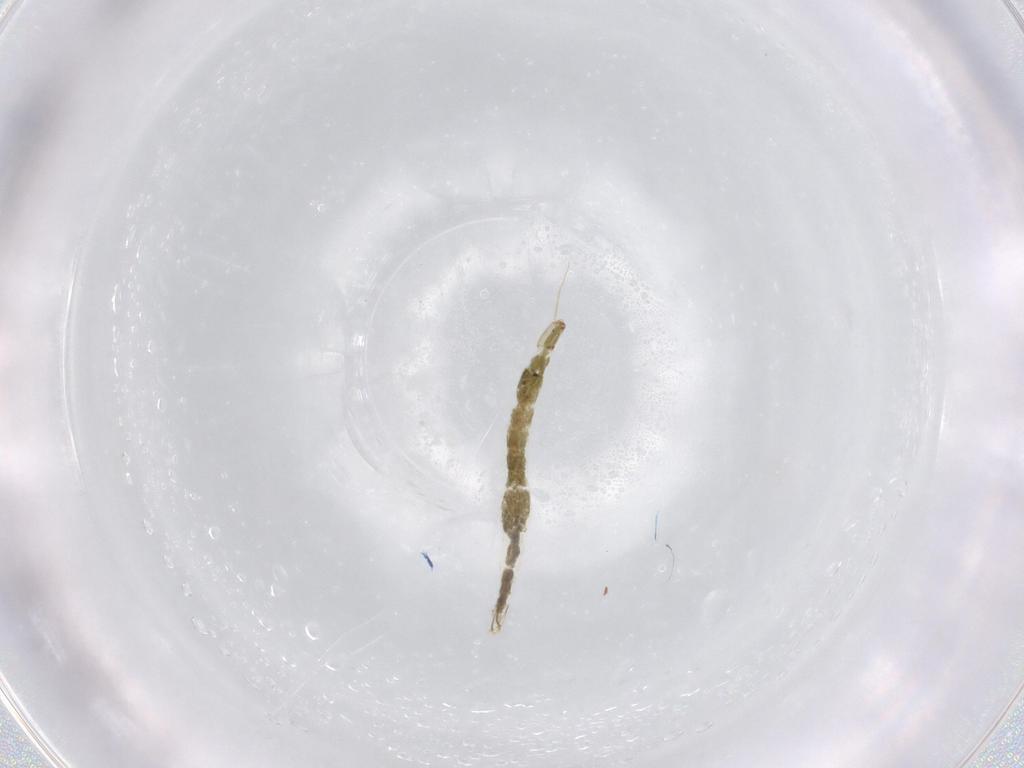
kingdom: Animalia
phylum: Arthropoda
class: Insecta
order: Diptera
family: Chironomidae
